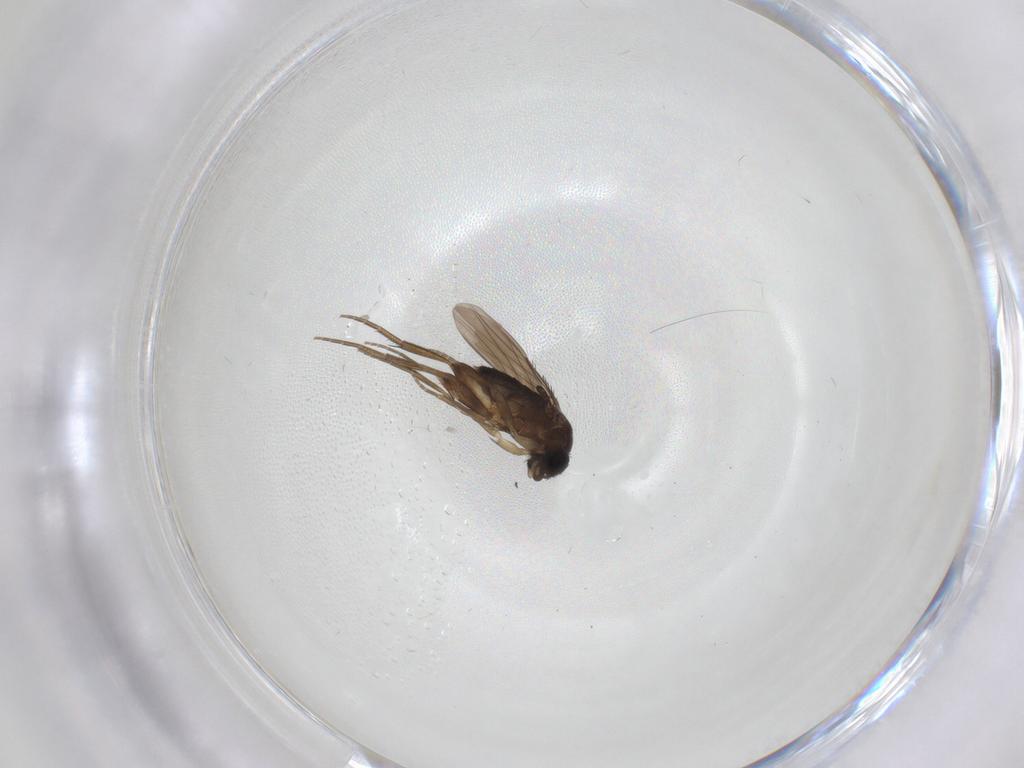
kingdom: Animalia
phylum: Arthropoda
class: Insecta
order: Diptera
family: Phoridae
